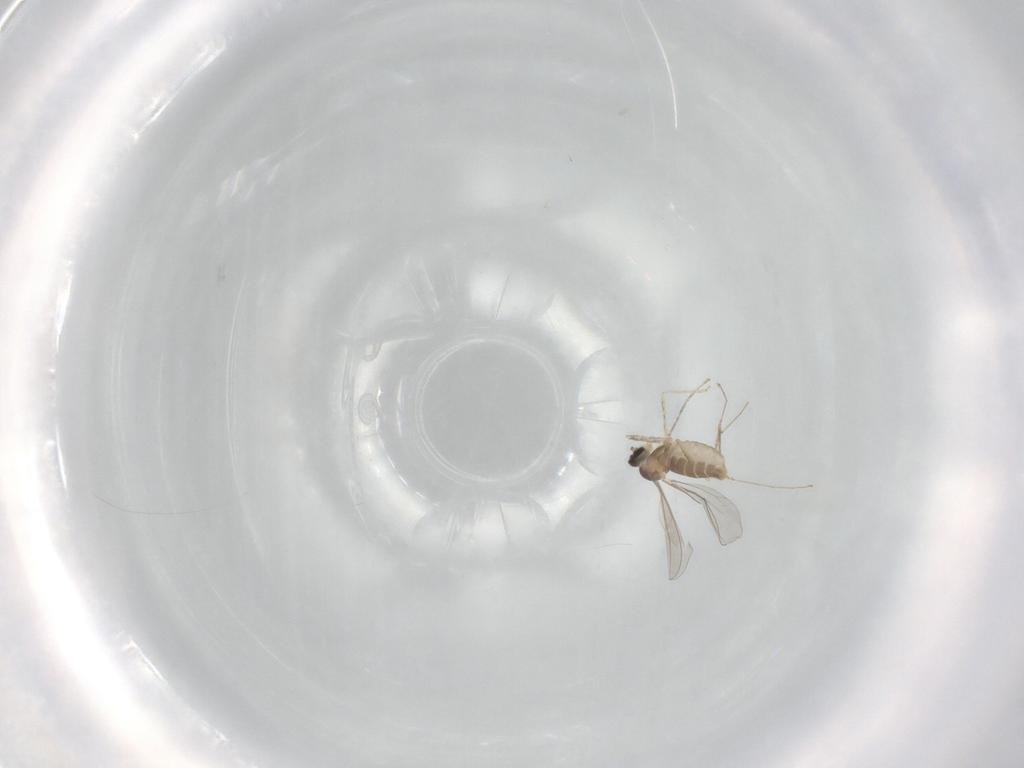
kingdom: Animalia
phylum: Arthropoda
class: Insecta
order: Diptera
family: Cecidomyiidae
